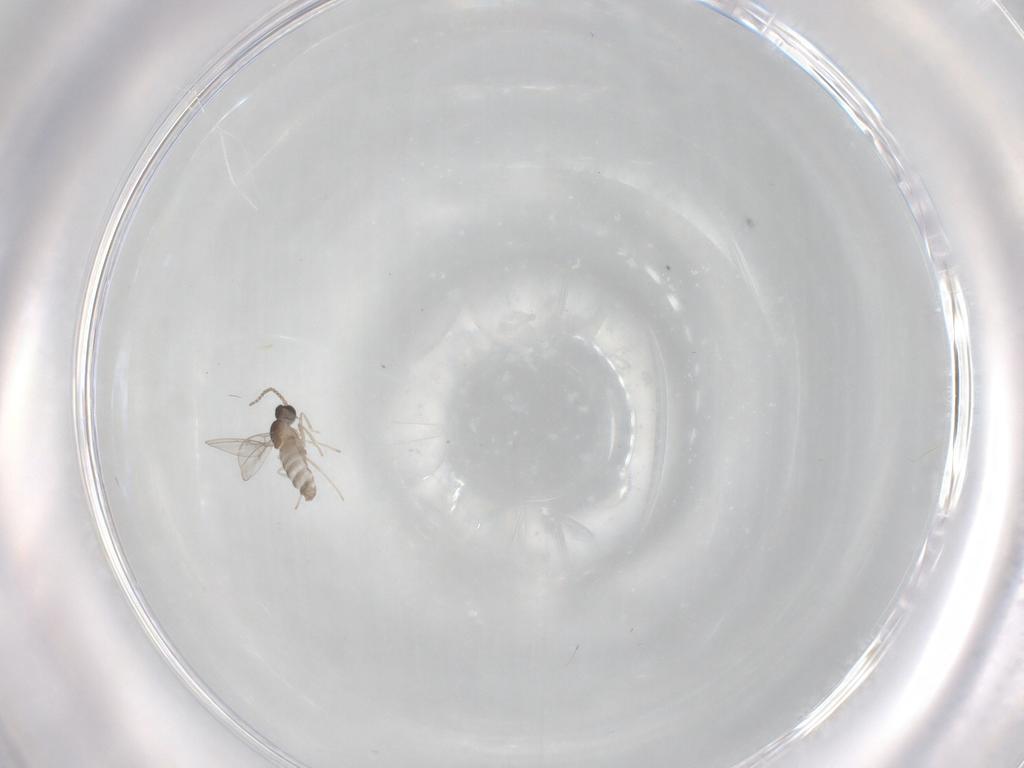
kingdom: Animalia
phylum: Arthropoda
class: Insecta
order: Diptera
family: Cecidomyiidae
